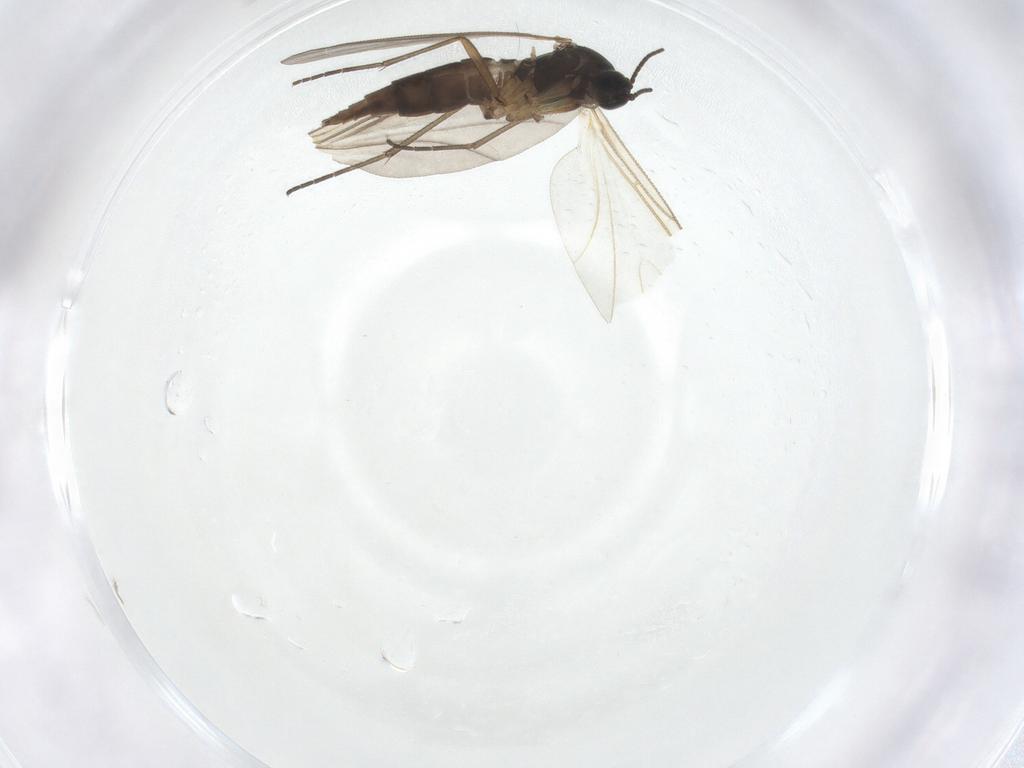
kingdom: Animalia
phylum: Arthropoda
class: Insecta
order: Diptera
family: Sciaridae
